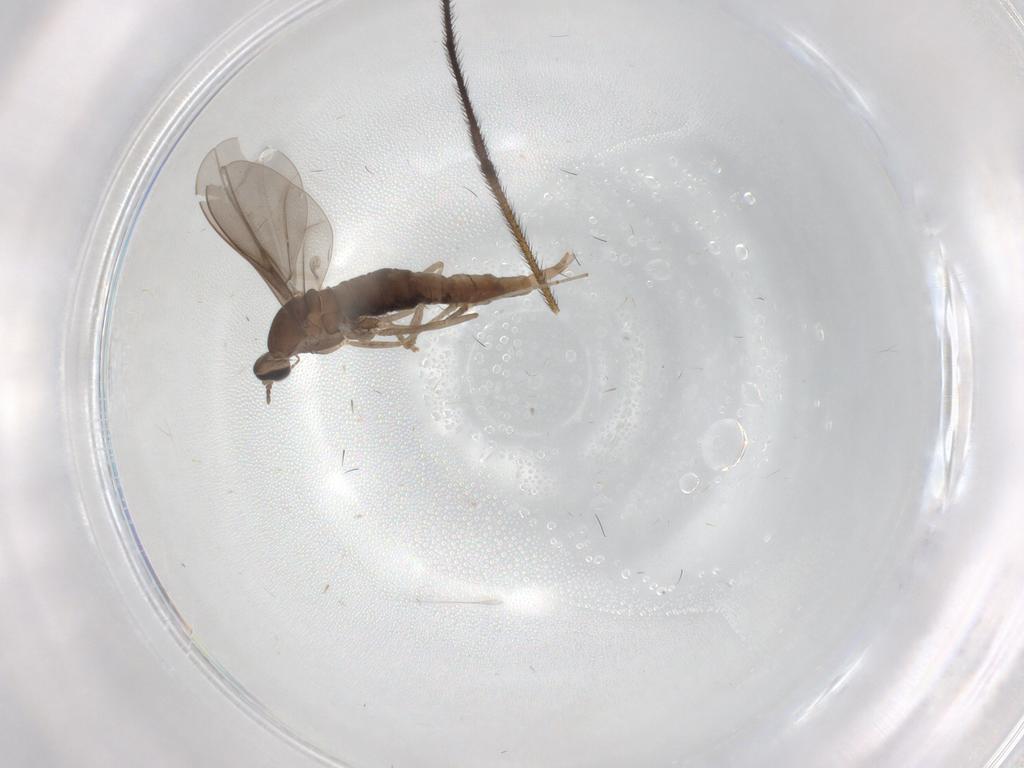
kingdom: Animalia
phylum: Arthropoda
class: Insecta
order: Diptera
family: Cecidomyiidae
